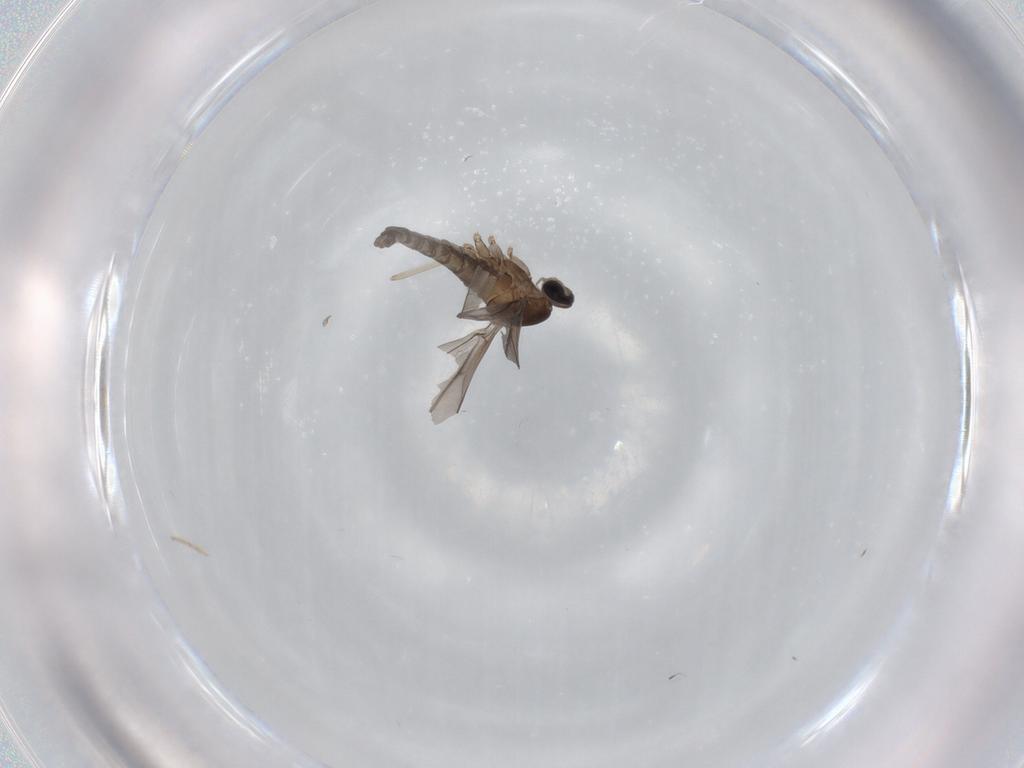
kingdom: Animalia
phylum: Arthropoda
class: Insecta
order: Diptera
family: Cecidomyiidae
